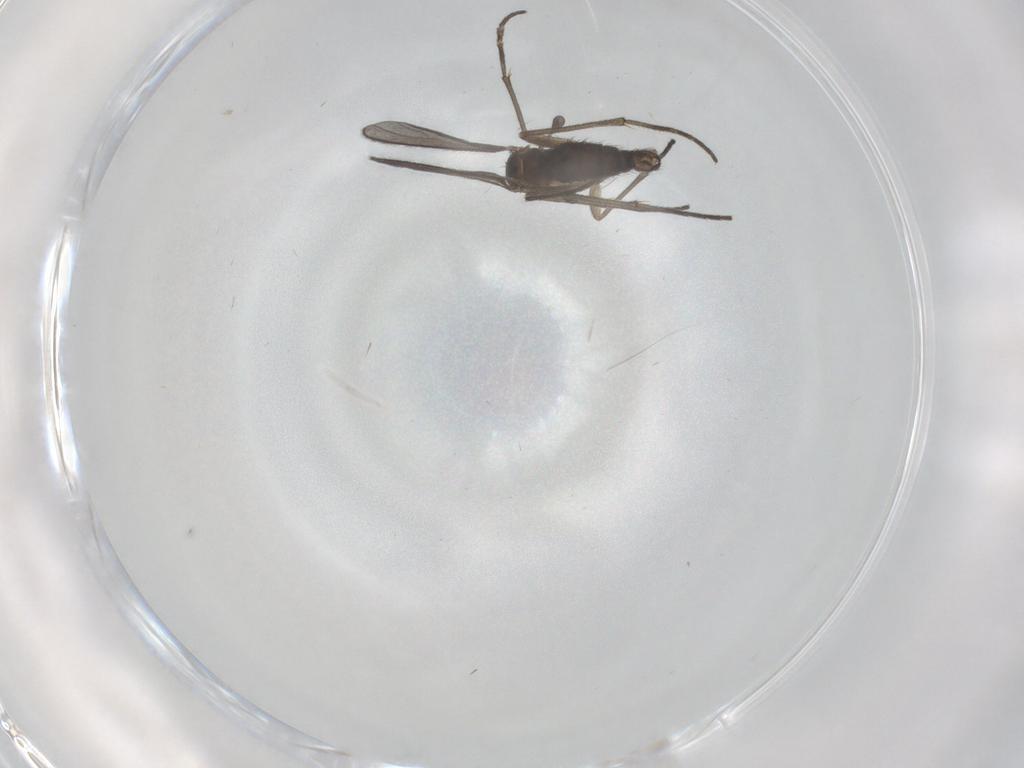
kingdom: Animalia
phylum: Arthropoda
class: Insecta
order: Diptera
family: Sciaridae
